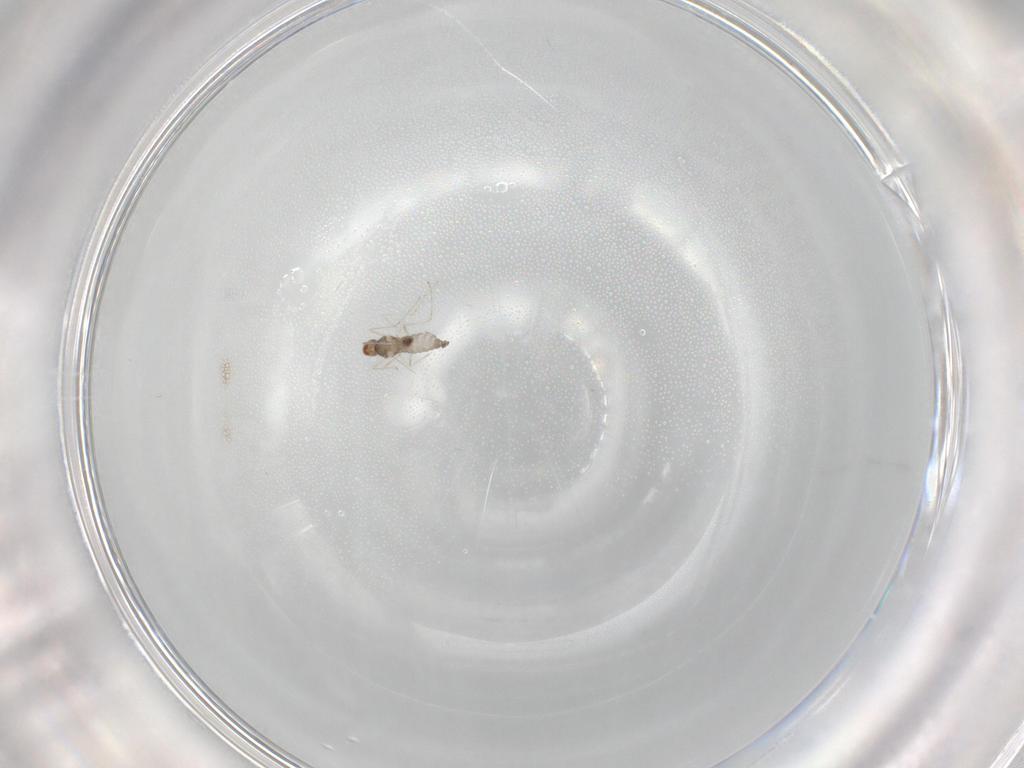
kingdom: Animalia
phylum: Arthropoda
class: Insecta
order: Diptera
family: Cecidomyiidae
